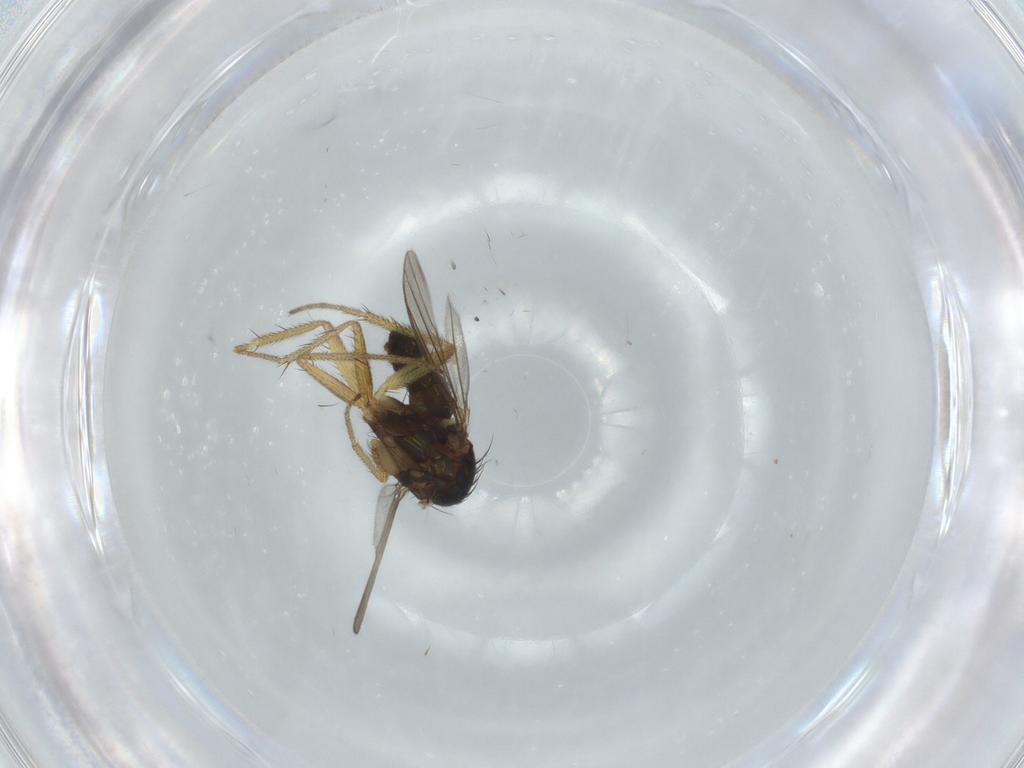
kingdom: Animalia
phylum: Arthropoda
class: Insecta
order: Diptera
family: Dolichopodidae
